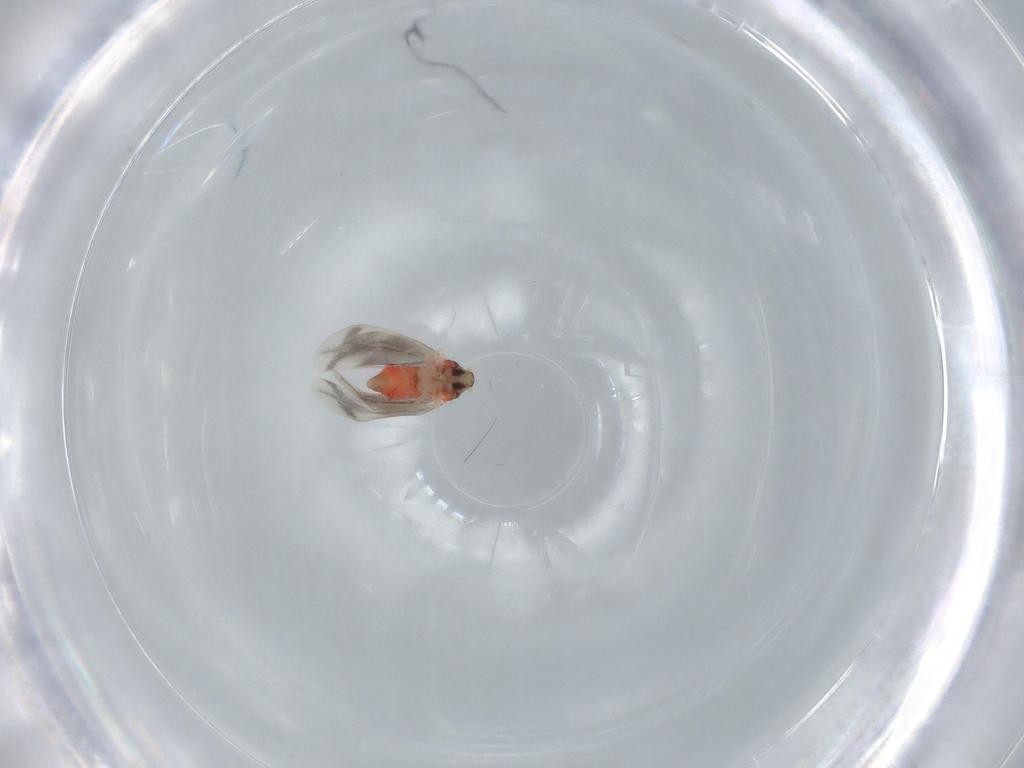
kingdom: Animalia
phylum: Arthropoda
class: Insecta
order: Hemiptera
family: Aleyrodidae
